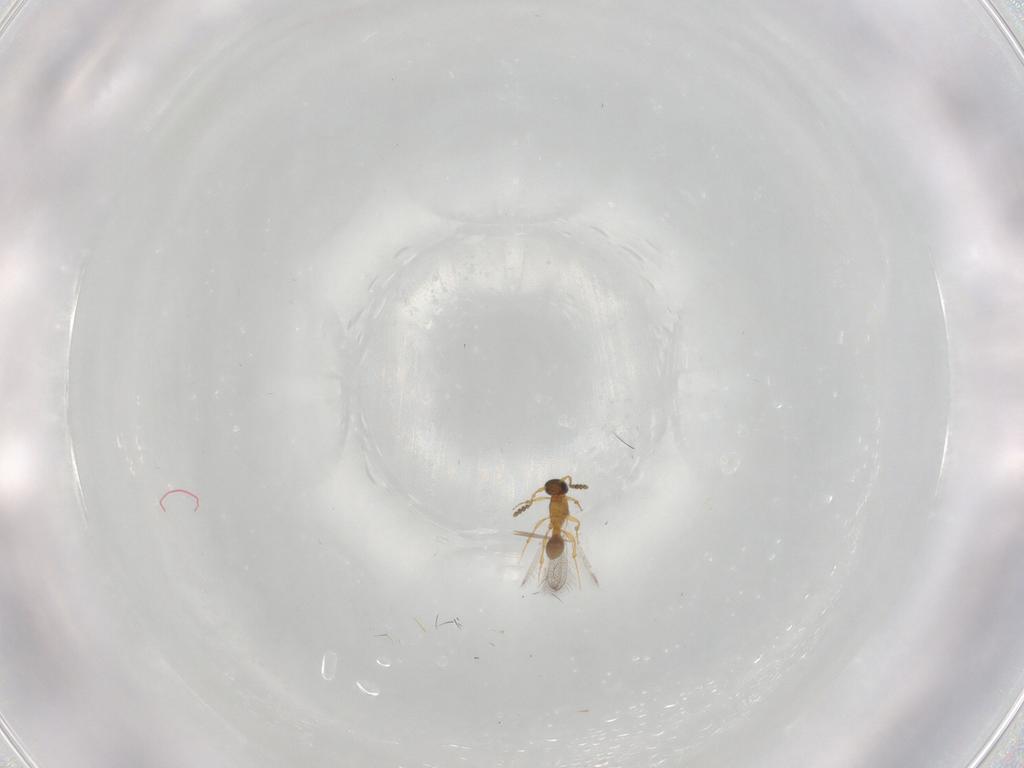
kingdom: Animalia
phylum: Arthropoda
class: Insecta
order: Hymenoptera
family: Platygastridae
